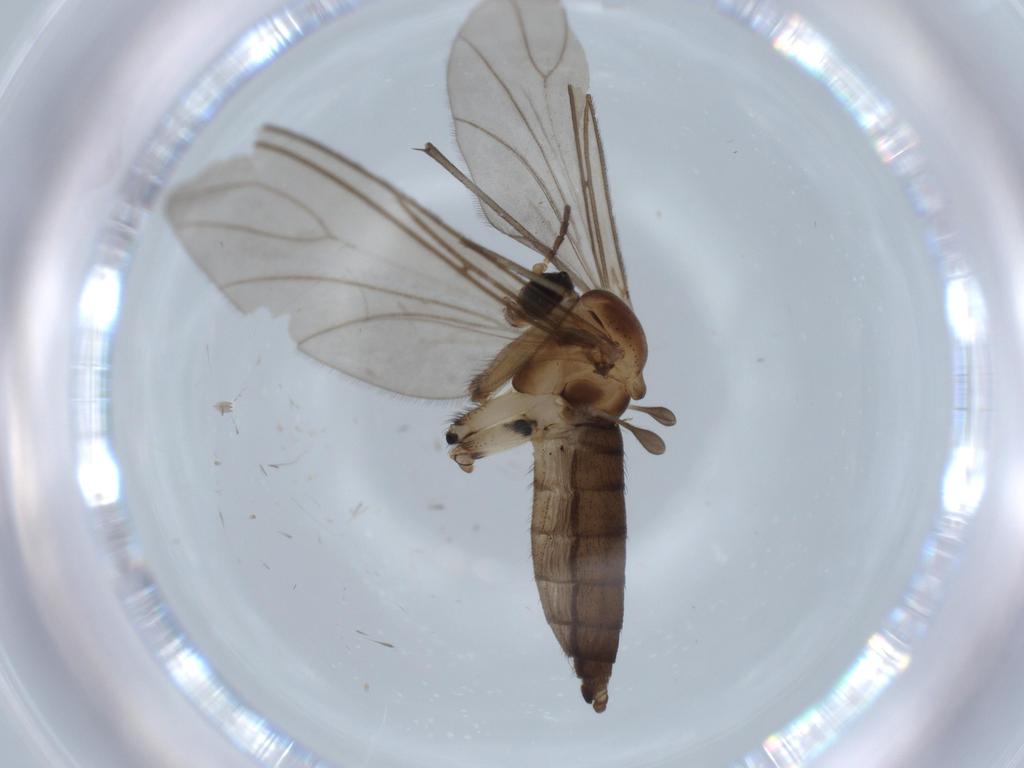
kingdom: Animalia
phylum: Arthropoda
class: Insecta
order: Diptera
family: Sciaridae
